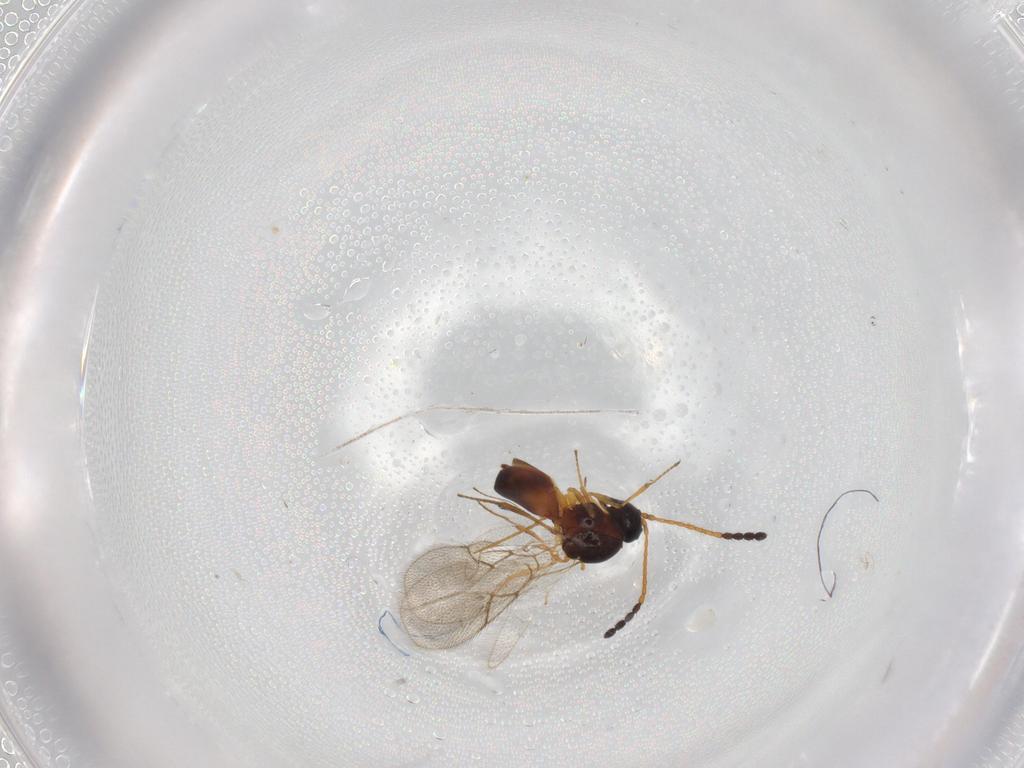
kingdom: Animalia
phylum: Arthropoda
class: Insecta
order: Hymenoptera
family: Figitidae
